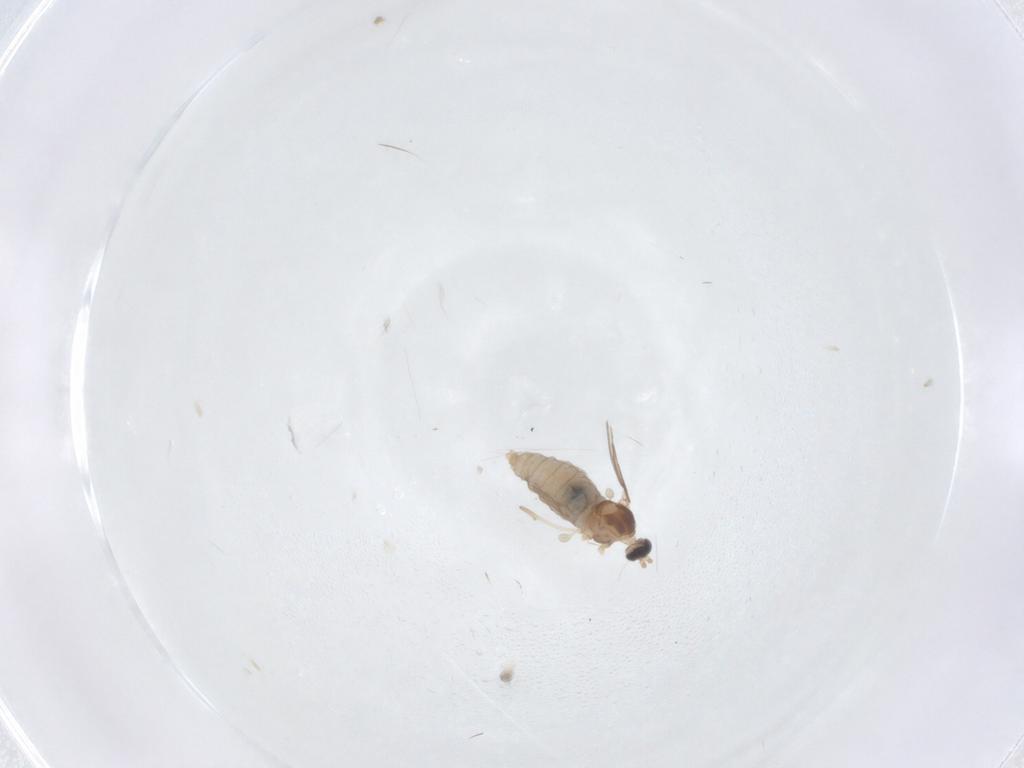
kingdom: Animalia
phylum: Arthropoda
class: Insecta
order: Diptera
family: Cecidomyiidae
